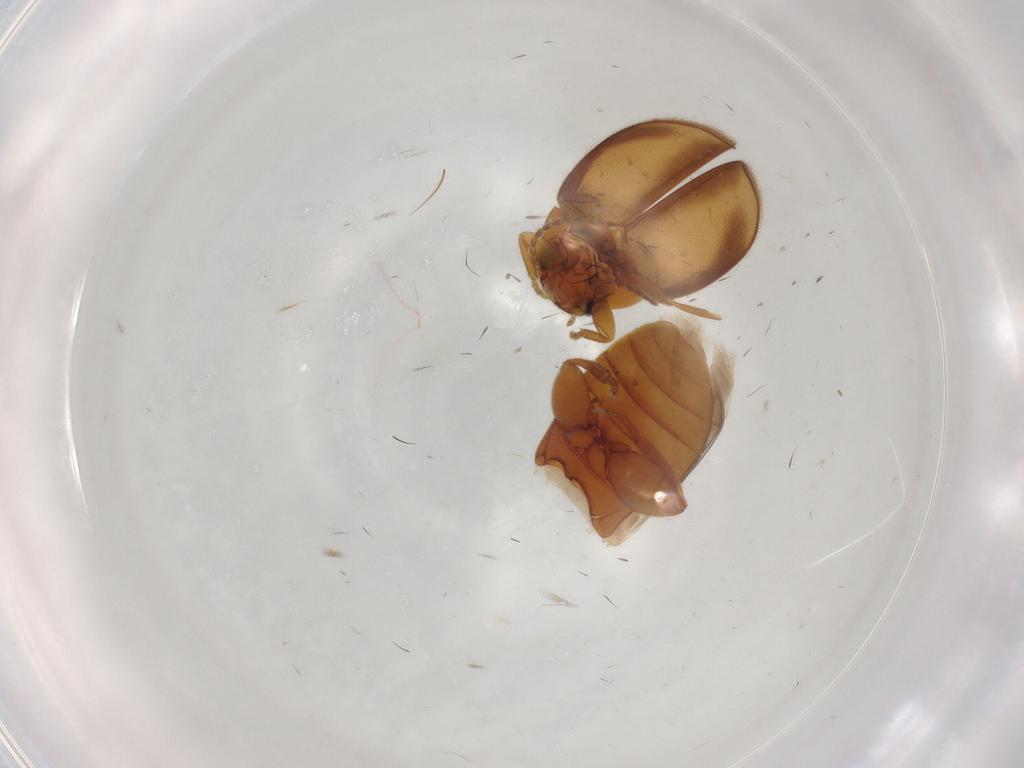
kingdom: Animalia
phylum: Arthropoda
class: Insecta
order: Coleoptera
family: Scirtidae
